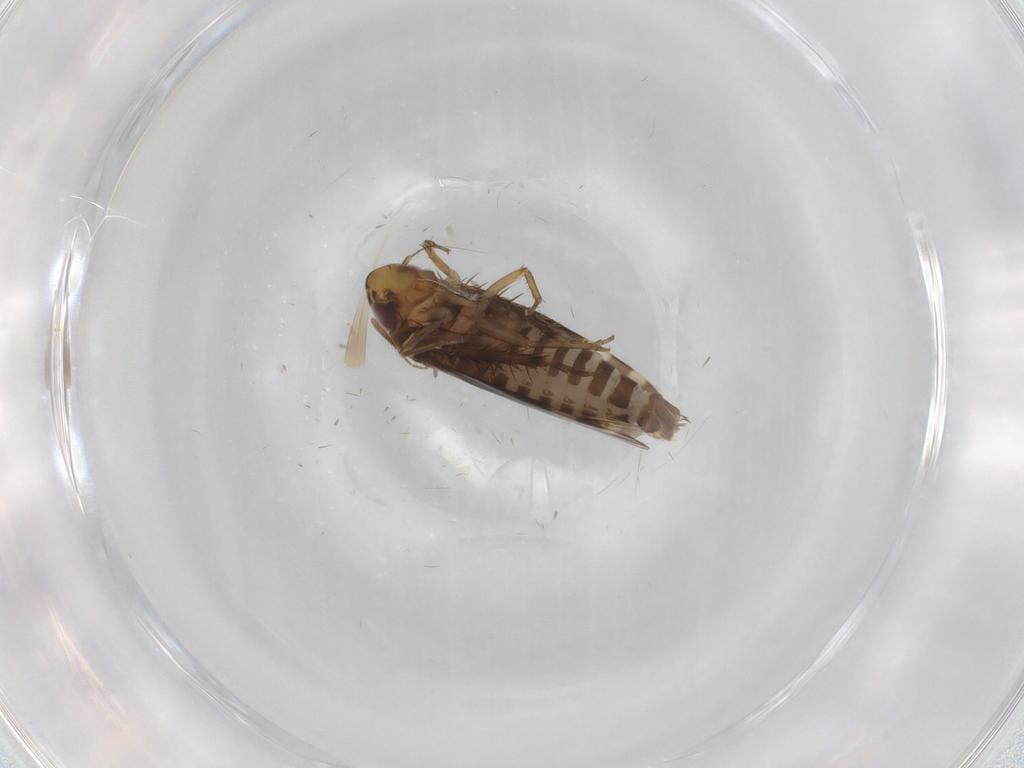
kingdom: Animalia
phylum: Arthropoda
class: Insecta
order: Hemiptera
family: Cicadellidae
